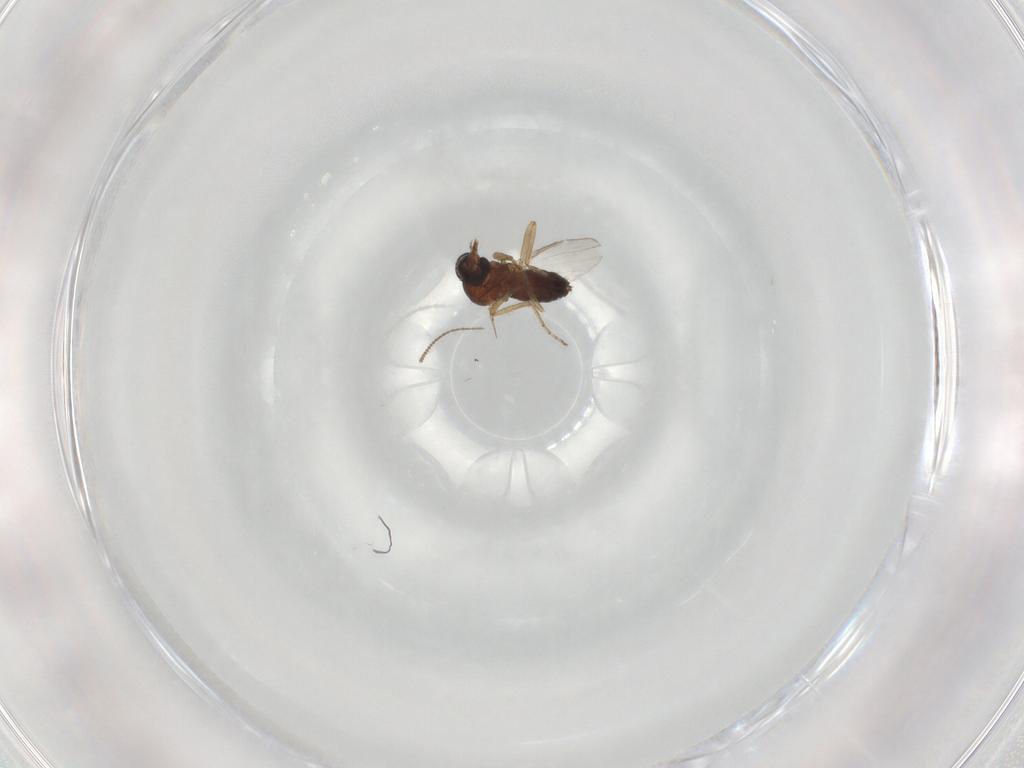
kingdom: Animalia
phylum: Arthropoda
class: Insecta
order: Diptera
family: Ceratopogonidae
